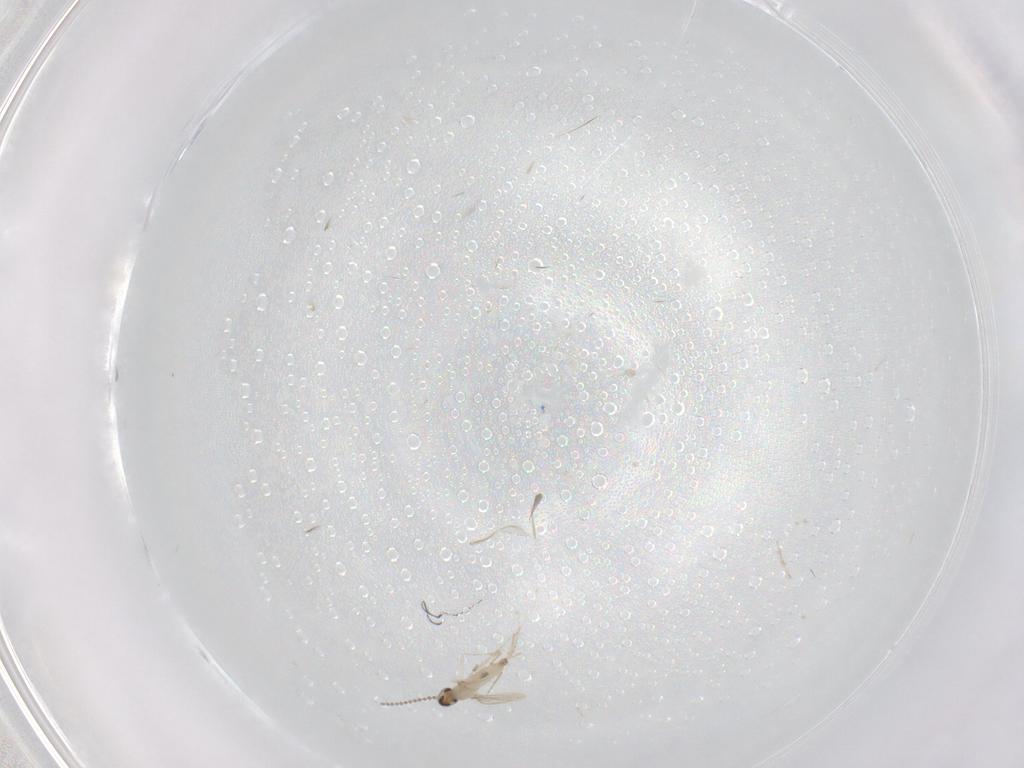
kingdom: Animalia
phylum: Arthropoda
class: Insecta
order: Diptera
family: Cecidomyiidae
